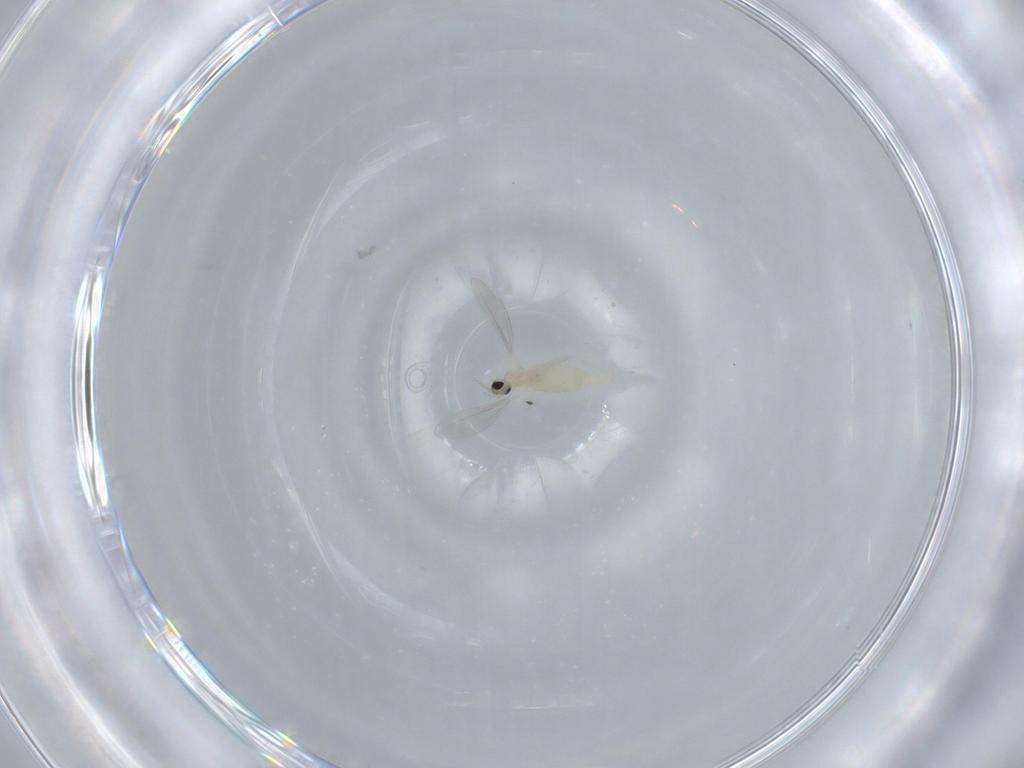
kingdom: Animalia
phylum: Arthropoda
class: Insecta
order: Diptera
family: Cecidomyiidae
